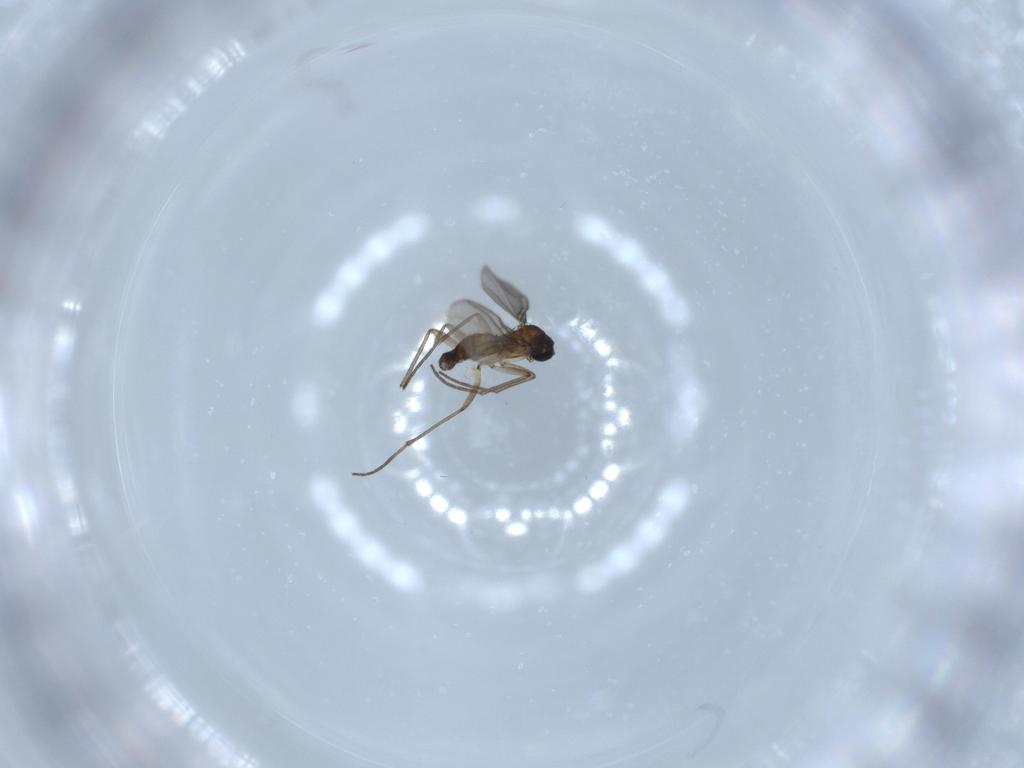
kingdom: Animalia
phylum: Arthropoda
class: Insecta
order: Diptera
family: Sciaridae
